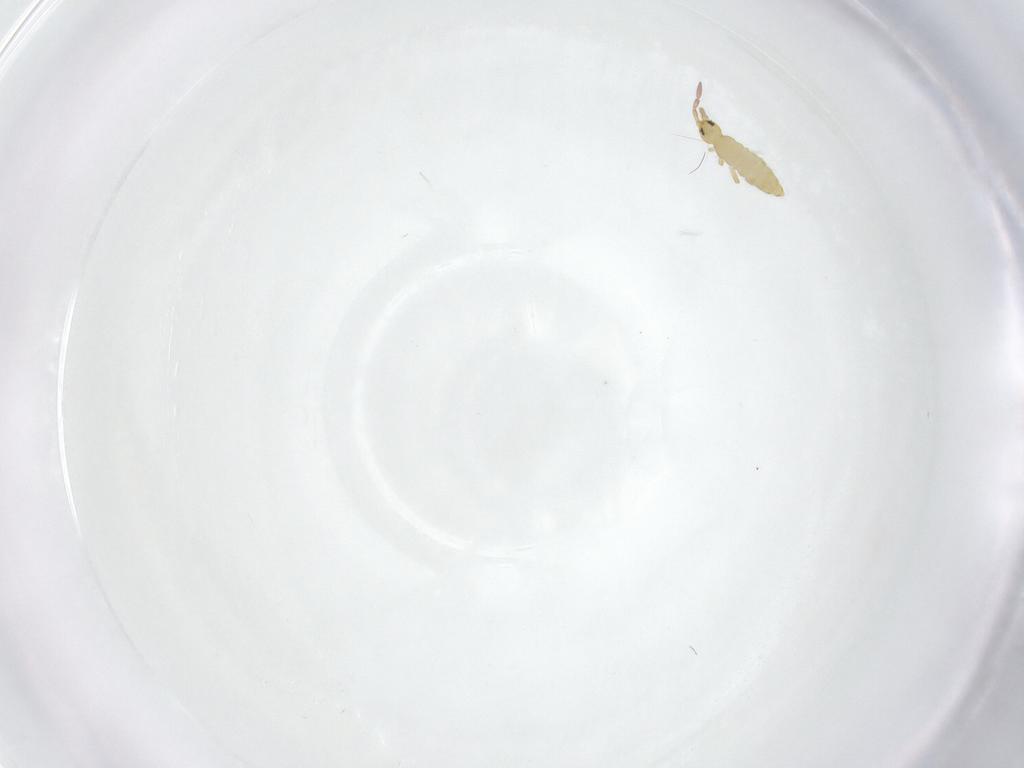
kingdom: Animalia
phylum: Arthropoda
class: Collembola
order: Entomobryomorpha
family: Entomobryidae
